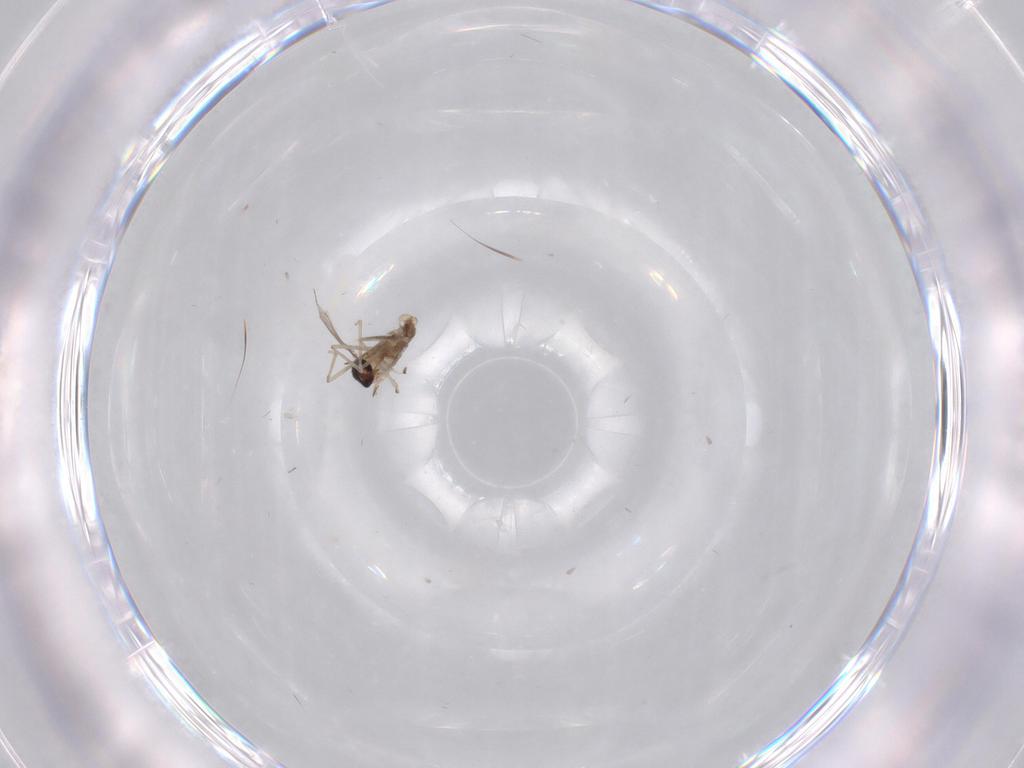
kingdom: Animalia
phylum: Arthropoda
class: Insecta
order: Diptera
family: Cecidomyiidae
